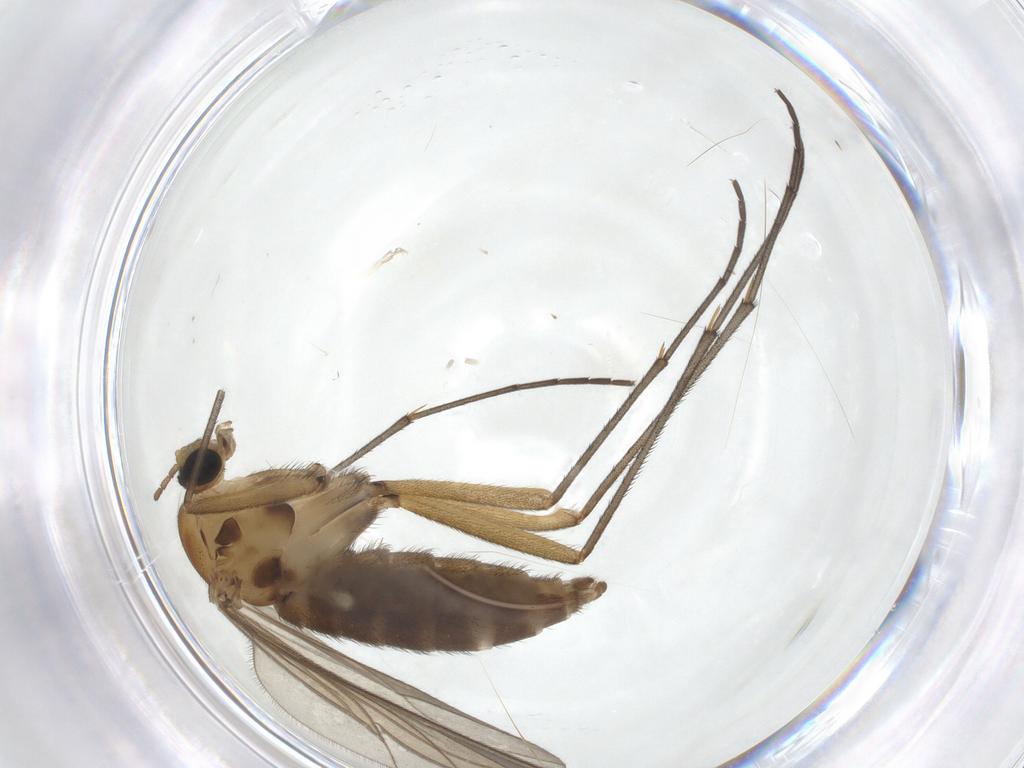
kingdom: Animalia
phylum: Arthropoda
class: Insecta
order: Diptera
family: Sciaridae
